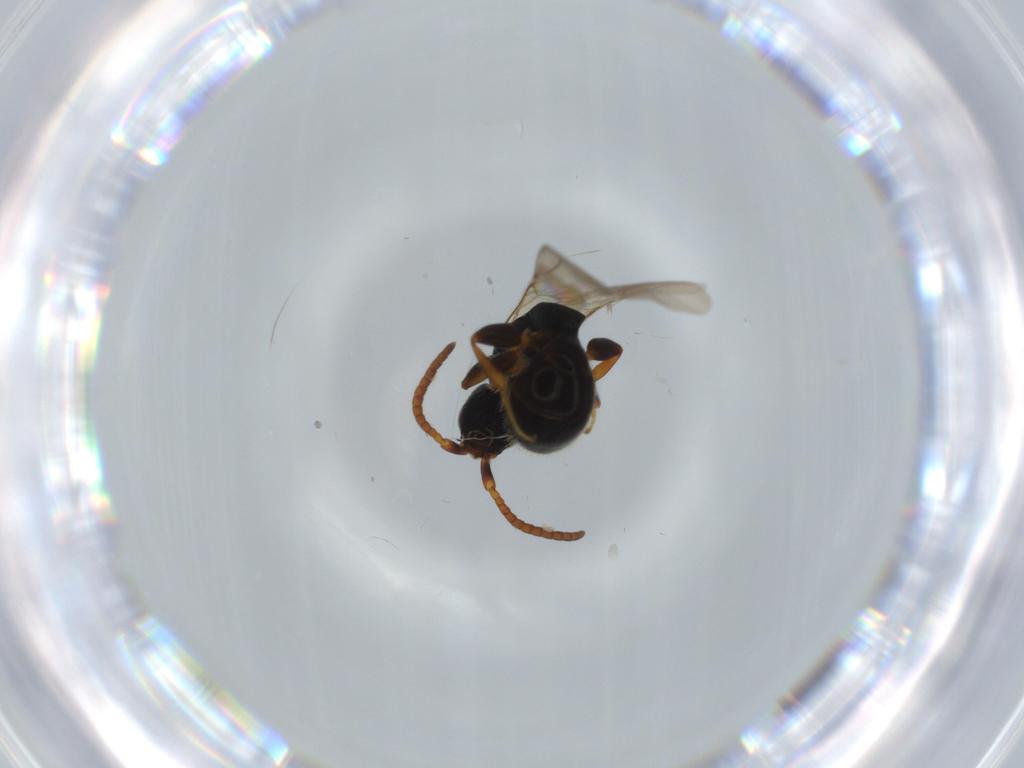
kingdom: Animalia
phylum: Arthropoda
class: Insecta
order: Hymenoptera
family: Bethylidae
